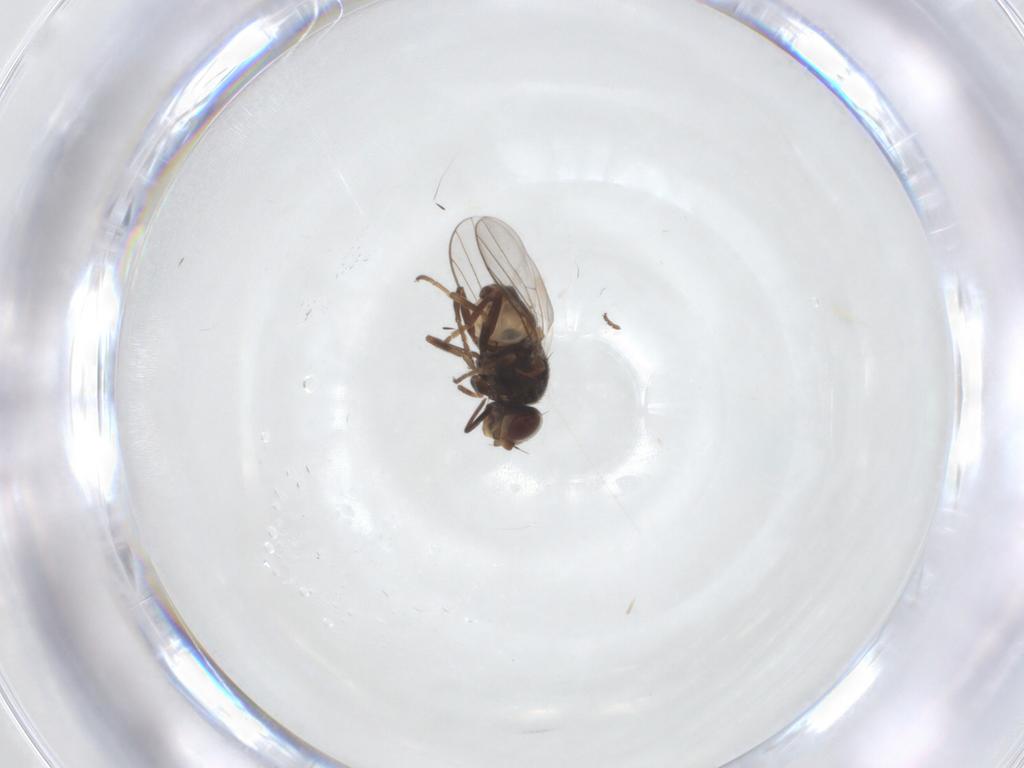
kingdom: Animalia
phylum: Arthropoda
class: Insecta
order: Diptera
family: Chloropidae
